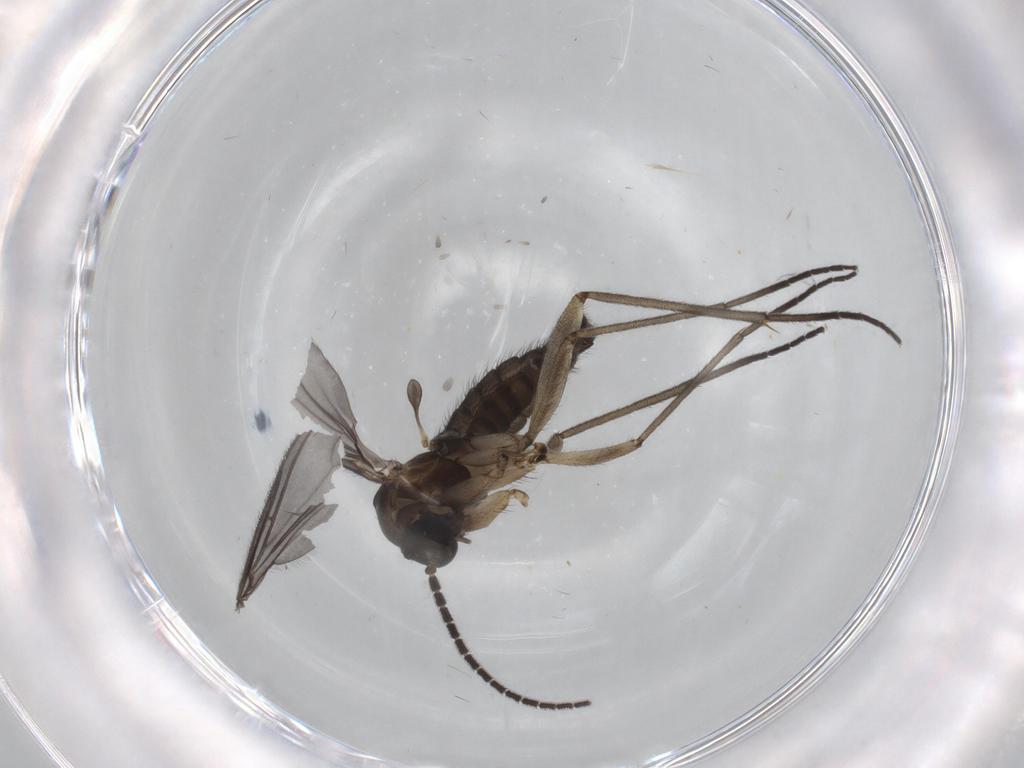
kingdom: Animalia
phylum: Arthropoda
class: Insecta
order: Diptera
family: Sciaridae
